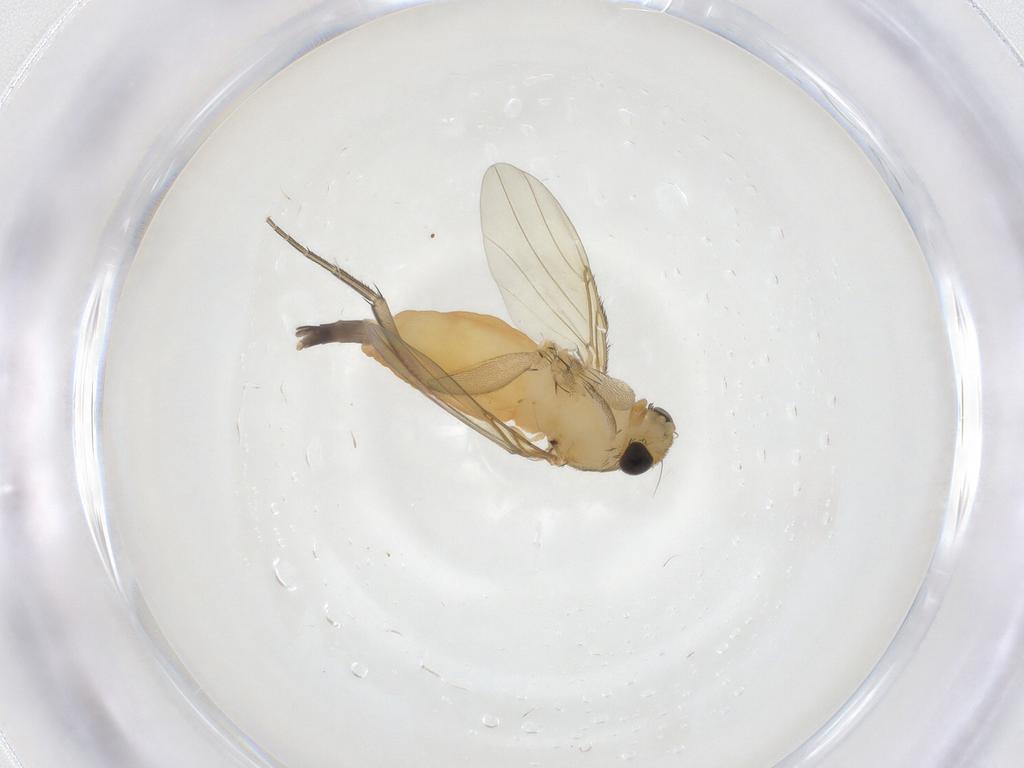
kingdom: Animalia
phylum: Arthropoda
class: Insecta
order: Diptera
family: Phoridae
